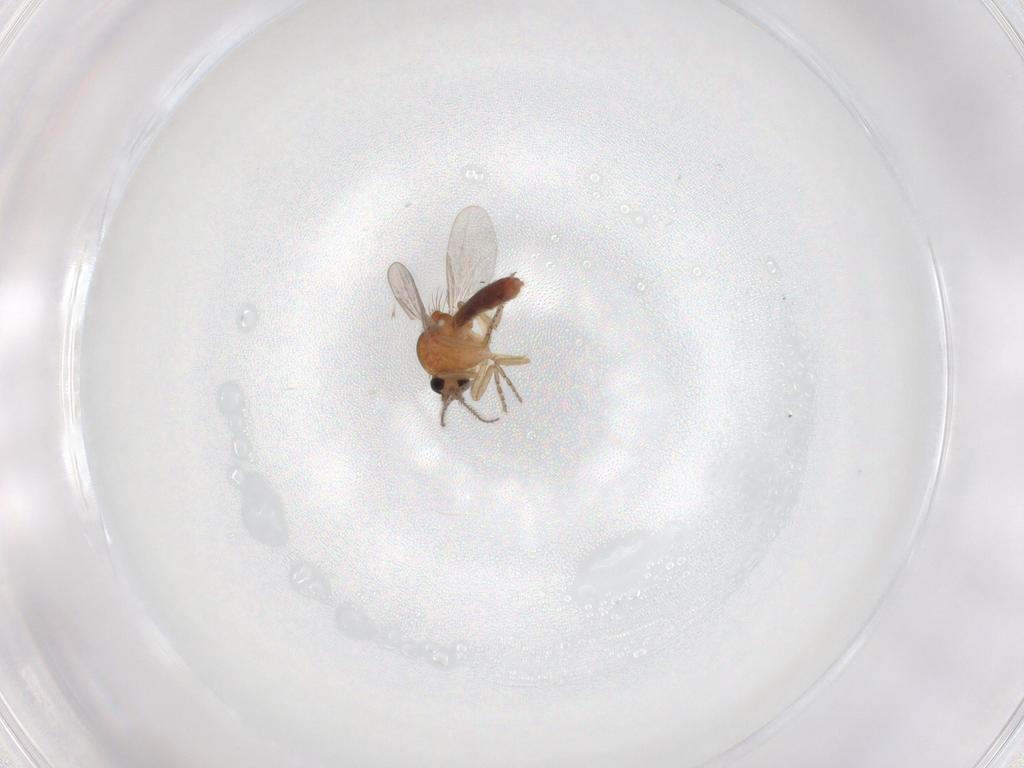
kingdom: Animalia
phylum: Arthropoda
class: Insecta
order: Diptera
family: Ceratopogonidae
